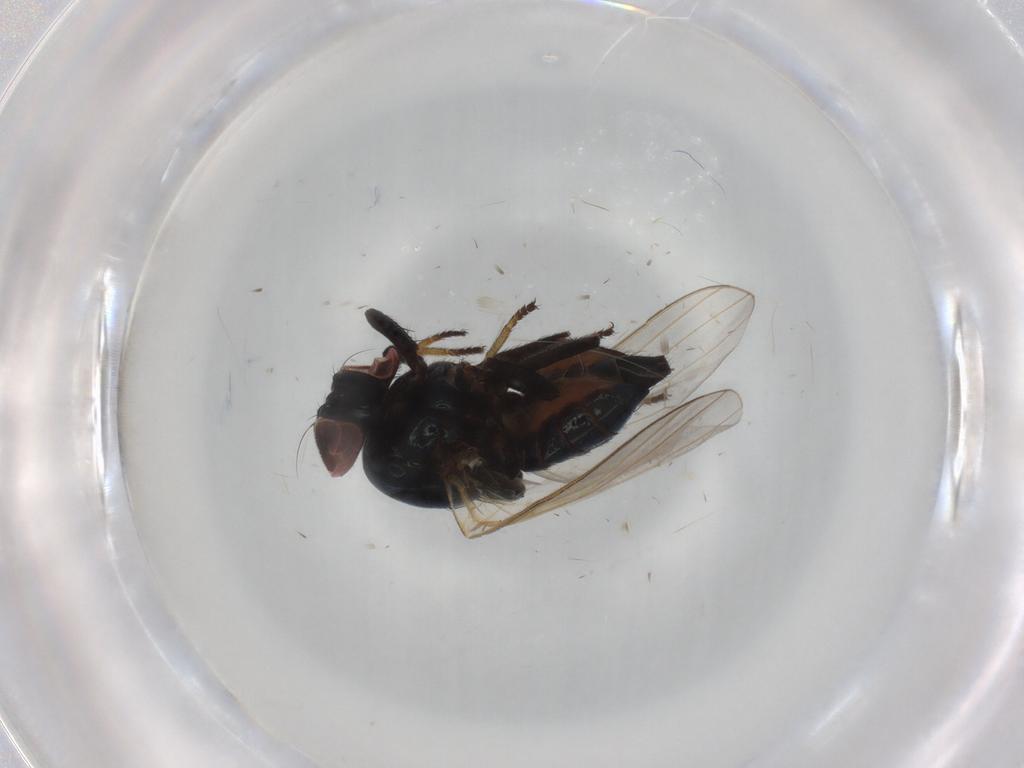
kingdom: Animalia
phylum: Arthropoda
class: Insecta
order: Diptera
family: Lonchaeidae
